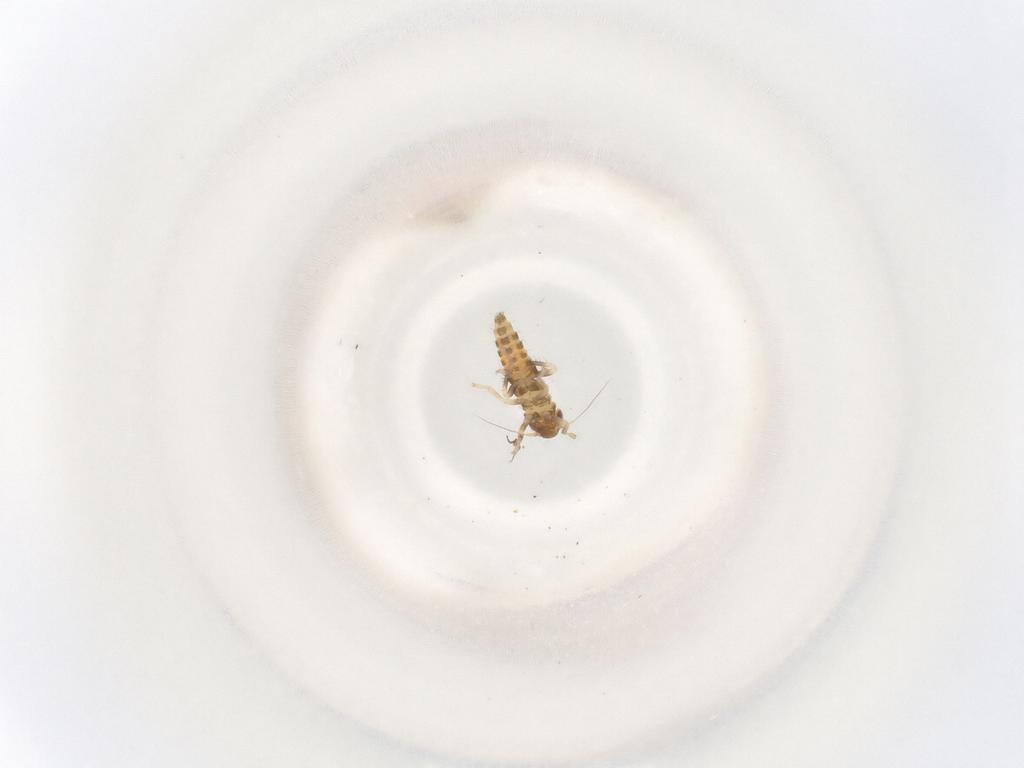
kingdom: Animalia
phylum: Arthropoda
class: Insecta
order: Hemiptera
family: Cicadellidae
